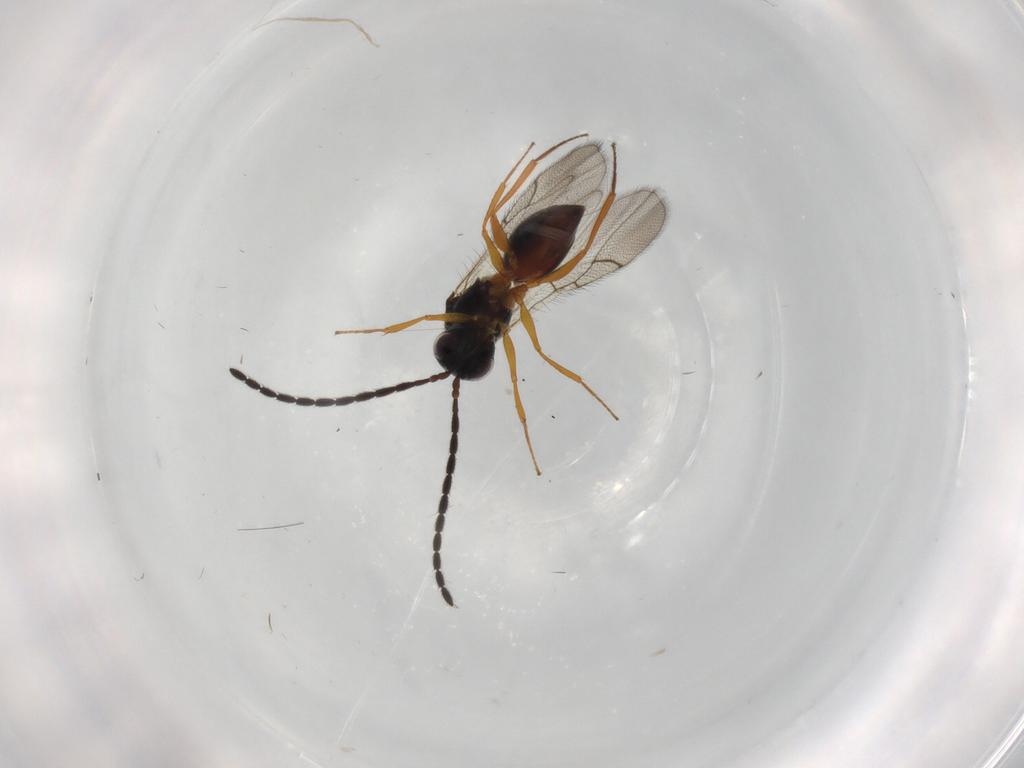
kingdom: Animalia
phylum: Arthropoda
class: Insecta
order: Hymenoptera
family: Figitidae
